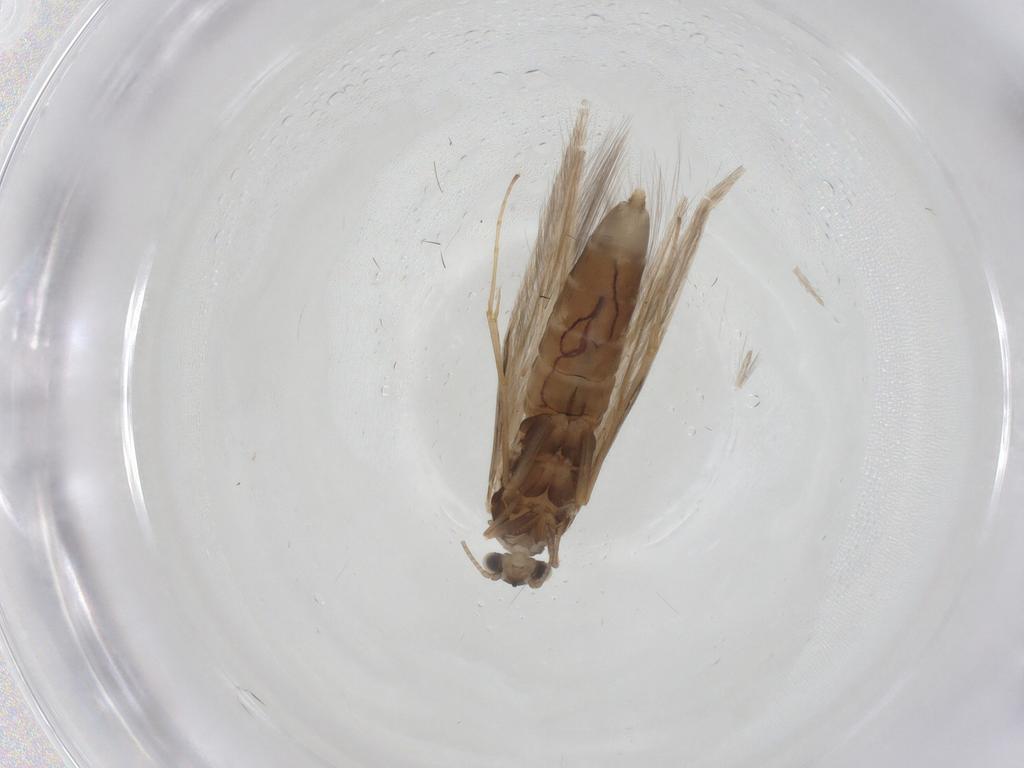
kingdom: Animalia
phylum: Arthropoda
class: Insecta
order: Trichoptera
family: Hydroptilidae
